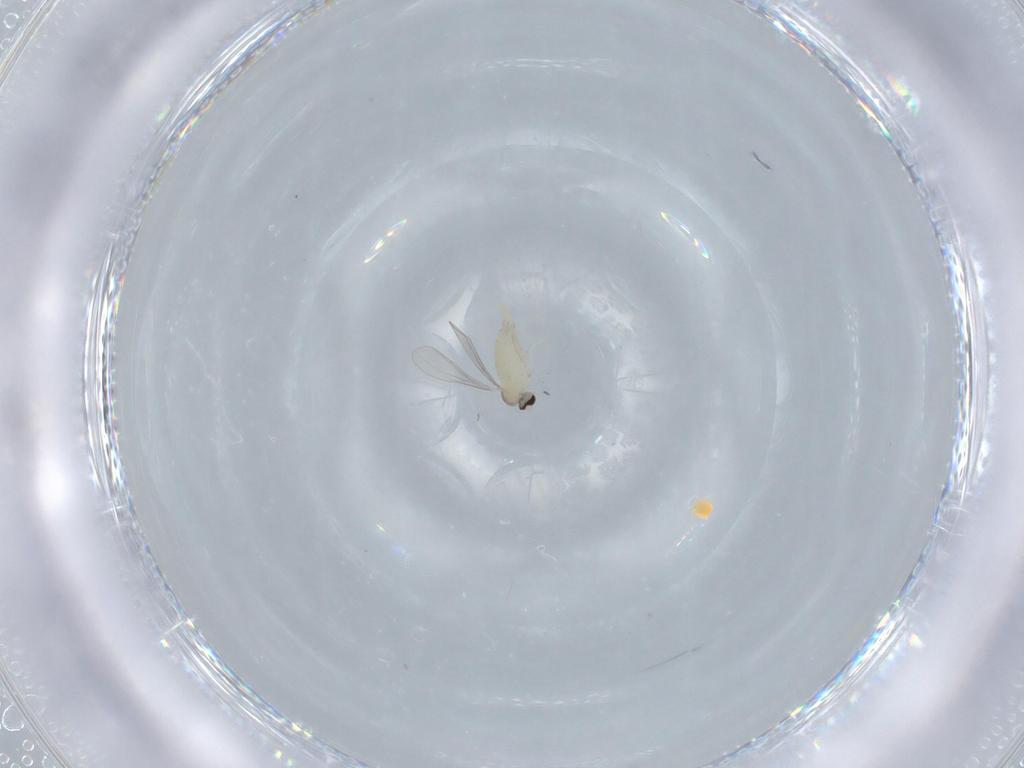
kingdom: Animalia
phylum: Arthropoda
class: Insecta
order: Diptera
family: Cecidomyiidae
